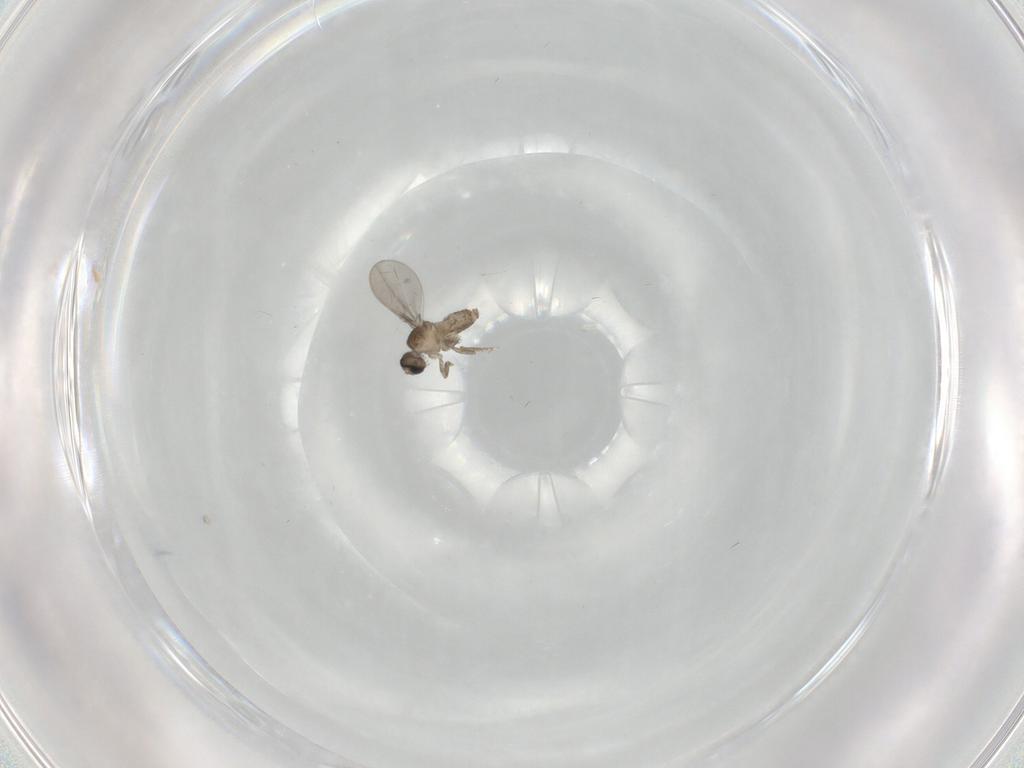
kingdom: Animalia
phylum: Arthropoda
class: Insecta
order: Diptera
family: Cecidomyiidae
